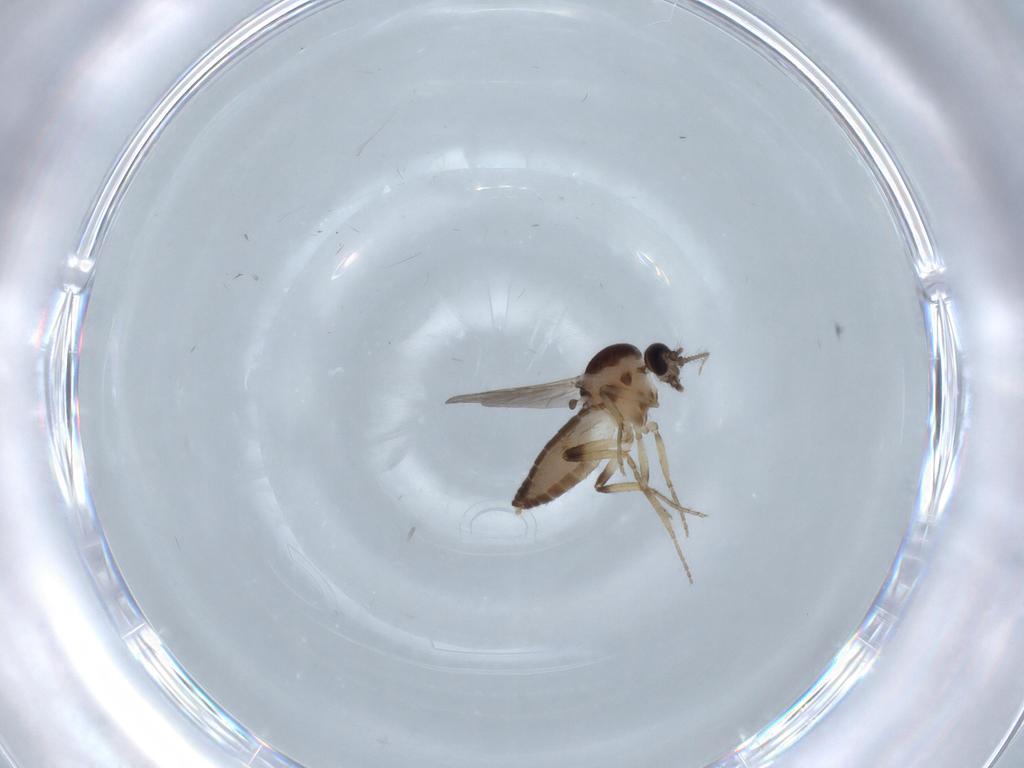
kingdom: Animalia
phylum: Arthropoda
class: Insecta
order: Diptera
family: Ceratopogonidae
